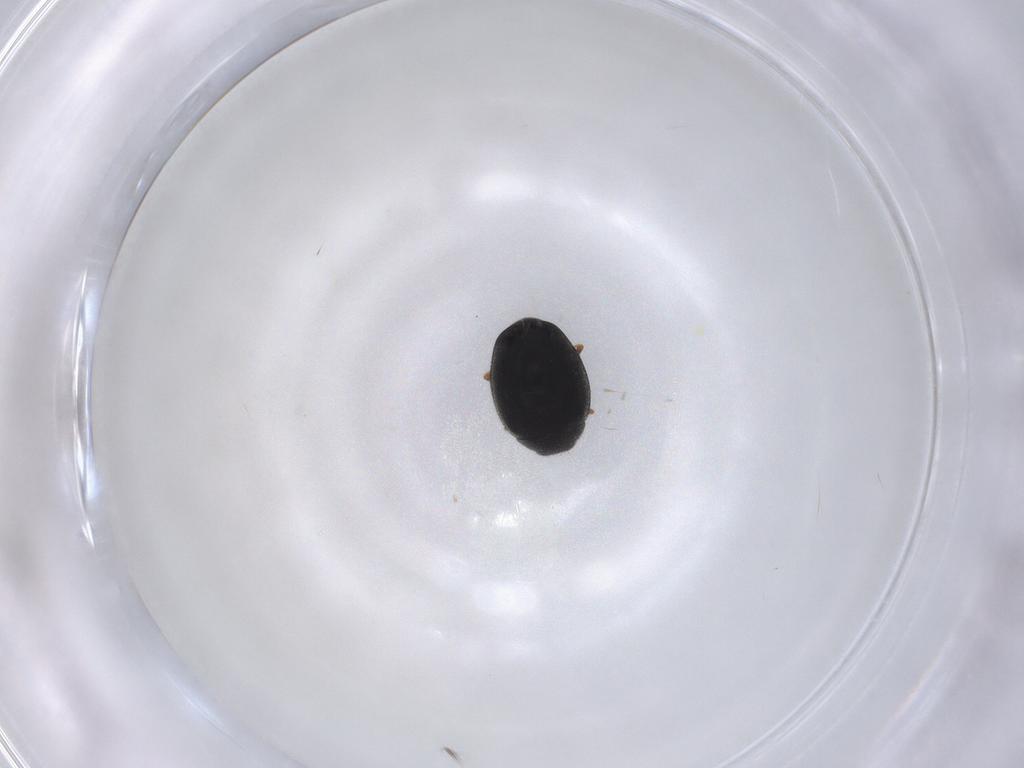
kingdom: Animalia
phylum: Arthropoda
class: Insecta
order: Coleoptera
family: Coccinellidae
